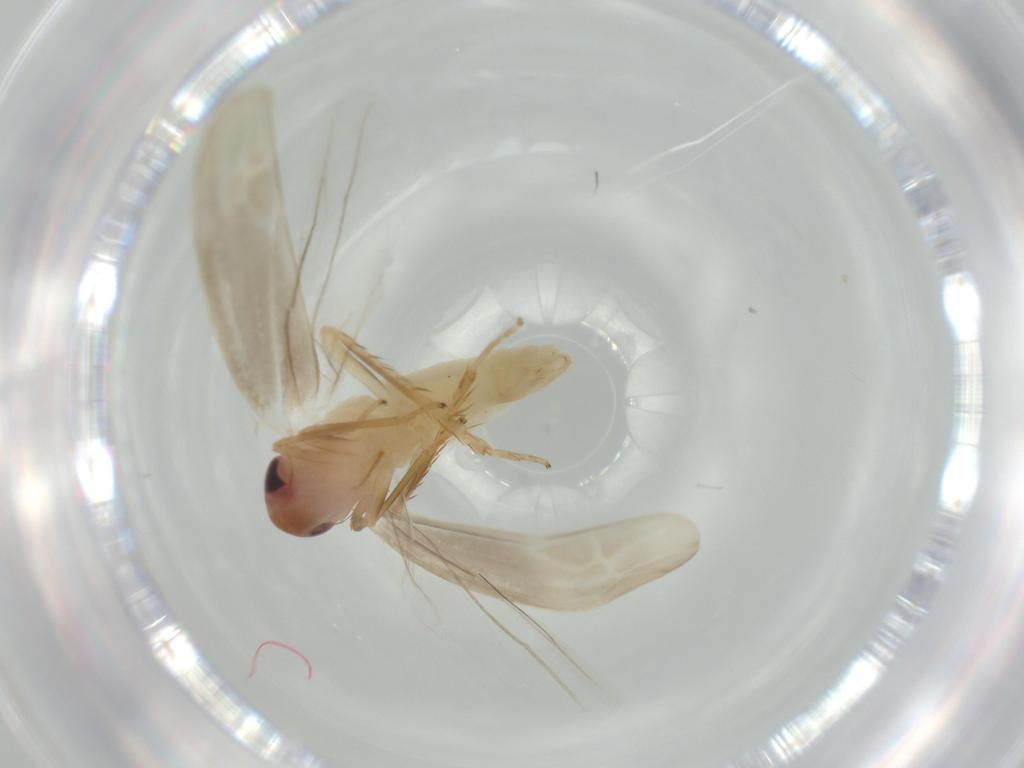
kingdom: Animalia
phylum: Arthropoda
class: Insecta
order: Hemiptera
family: Cicadellidae
